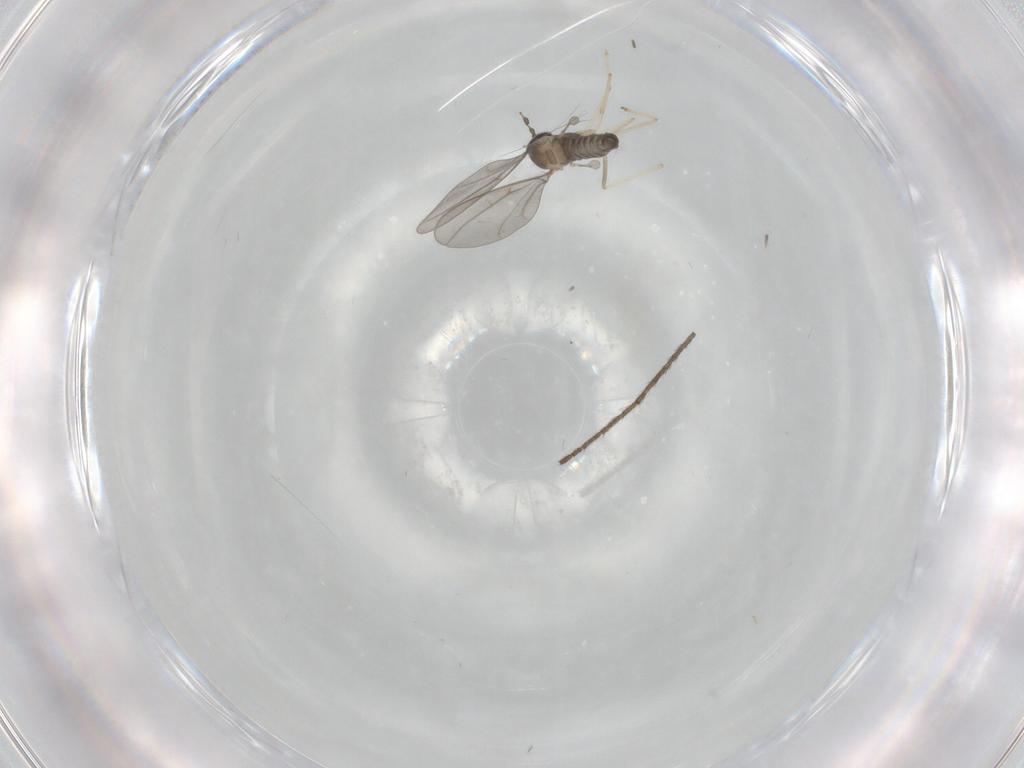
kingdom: Animalia
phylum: Arthropoda
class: Insecta
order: Diptera
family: Limoniidae
